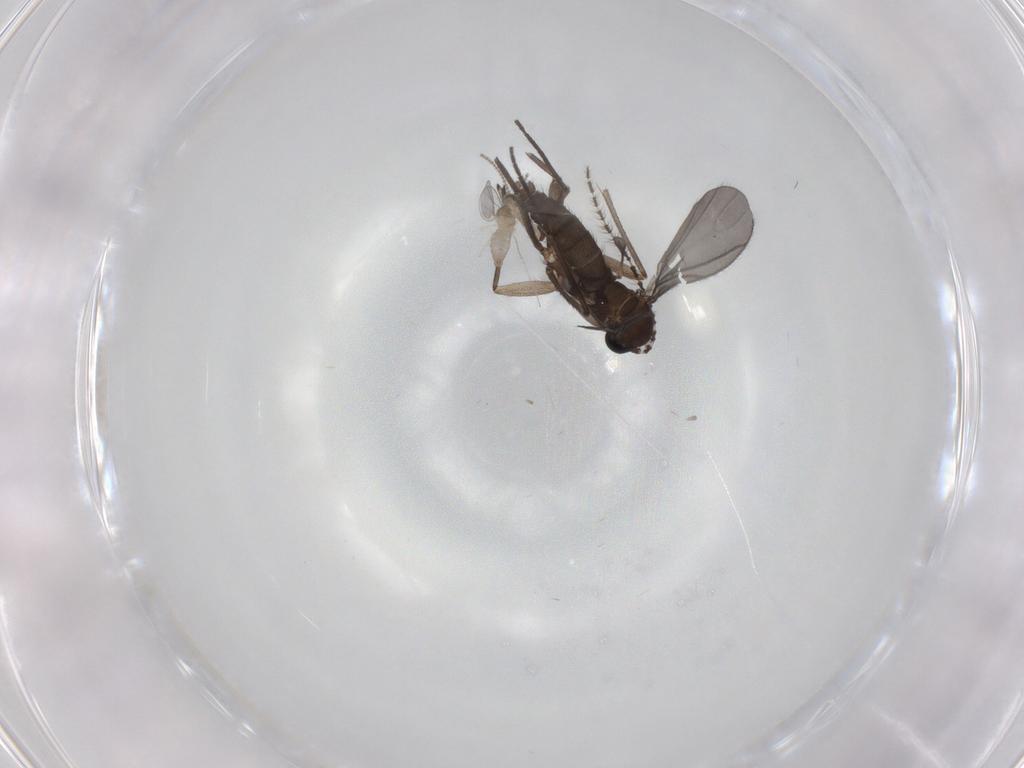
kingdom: Animalia
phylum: Arthropoda
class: Insecta
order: Diptera
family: Sciaridae
